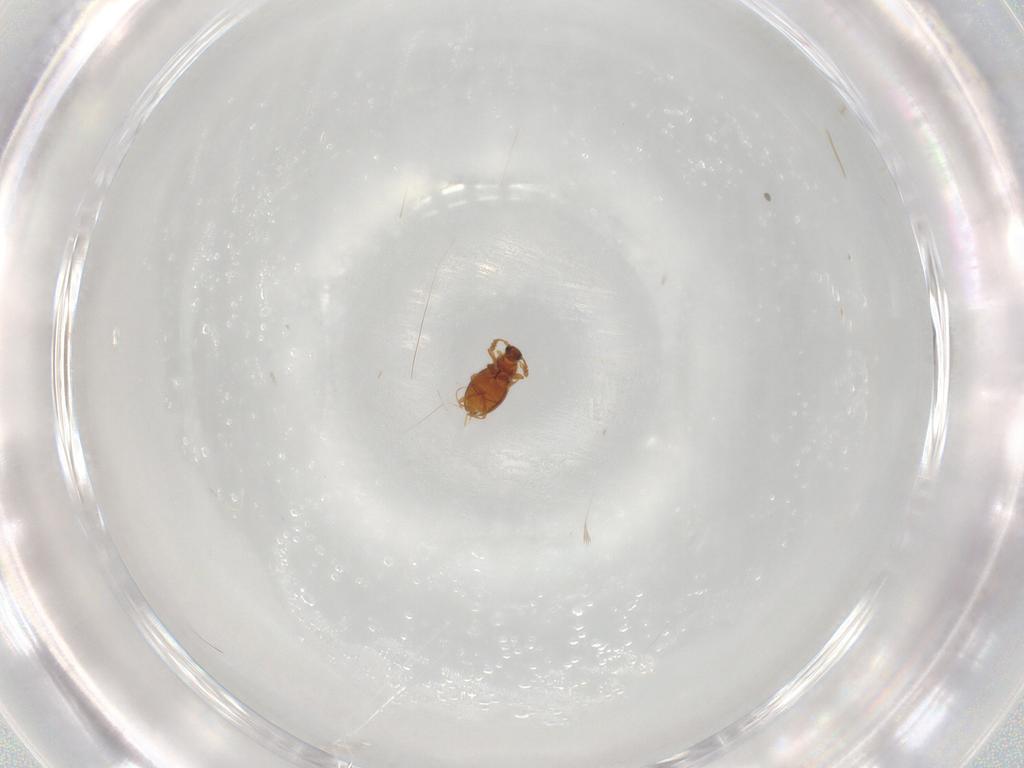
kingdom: Animalia
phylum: Arthropoda
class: Insecta
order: Coleoptera
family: Staphylinidae
